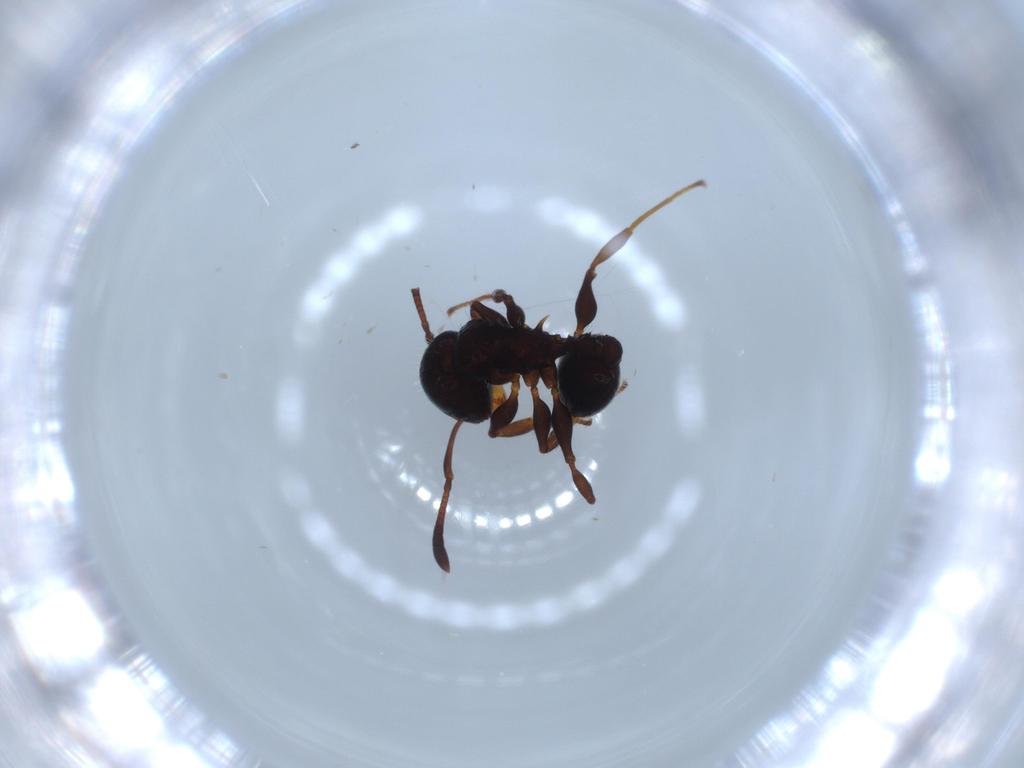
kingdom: Animalia
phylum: Arthropoda
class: Insecta
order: Hymenoptera
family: Formicidae
